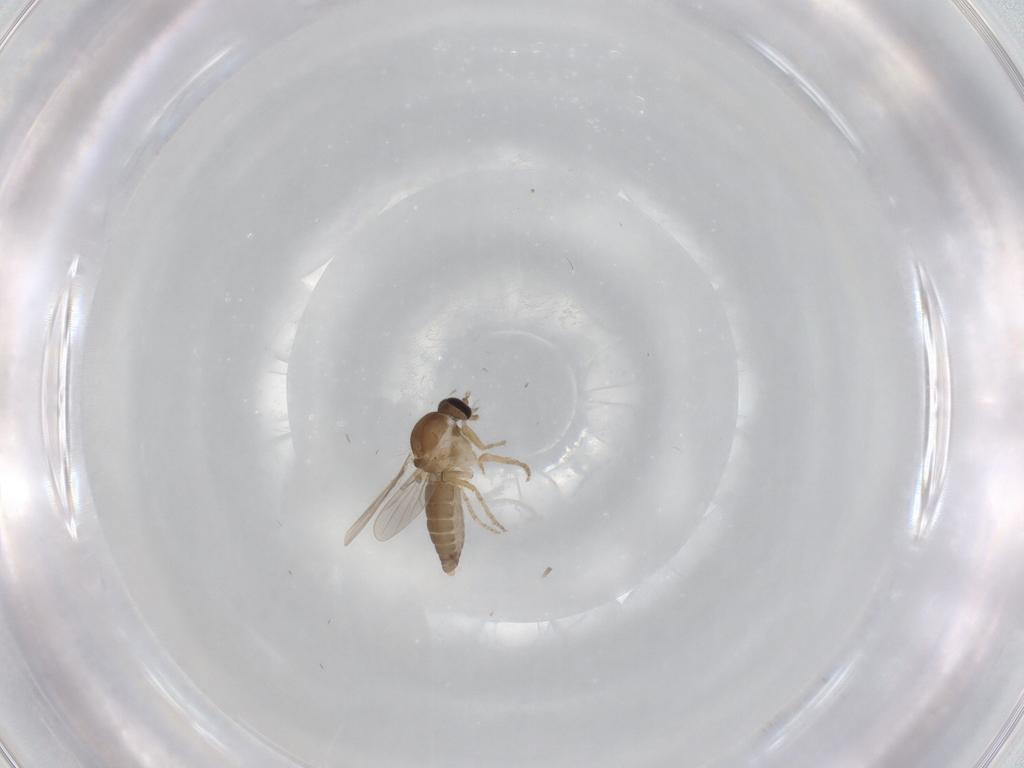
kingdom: Animalia
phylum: Arthropoda
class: Insecta
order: Diptera
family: Ceratopogonidae
